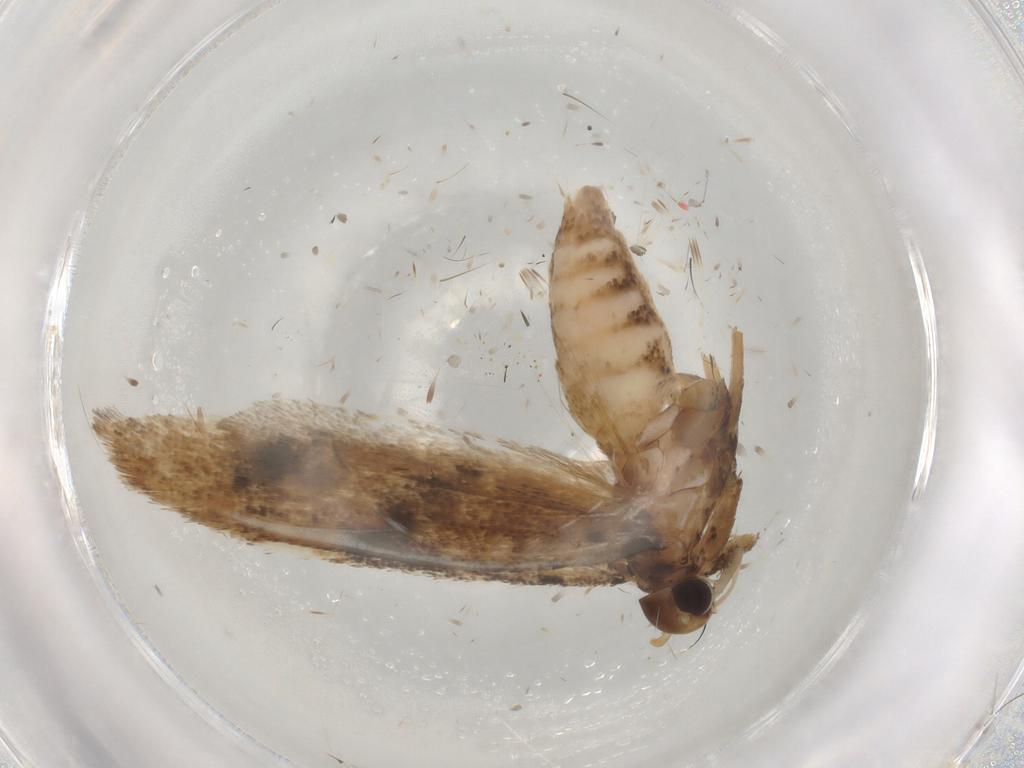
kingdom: Animalia
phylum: Arthropoda
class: Insecta
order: Lepidoptera
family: Gelechiidae
